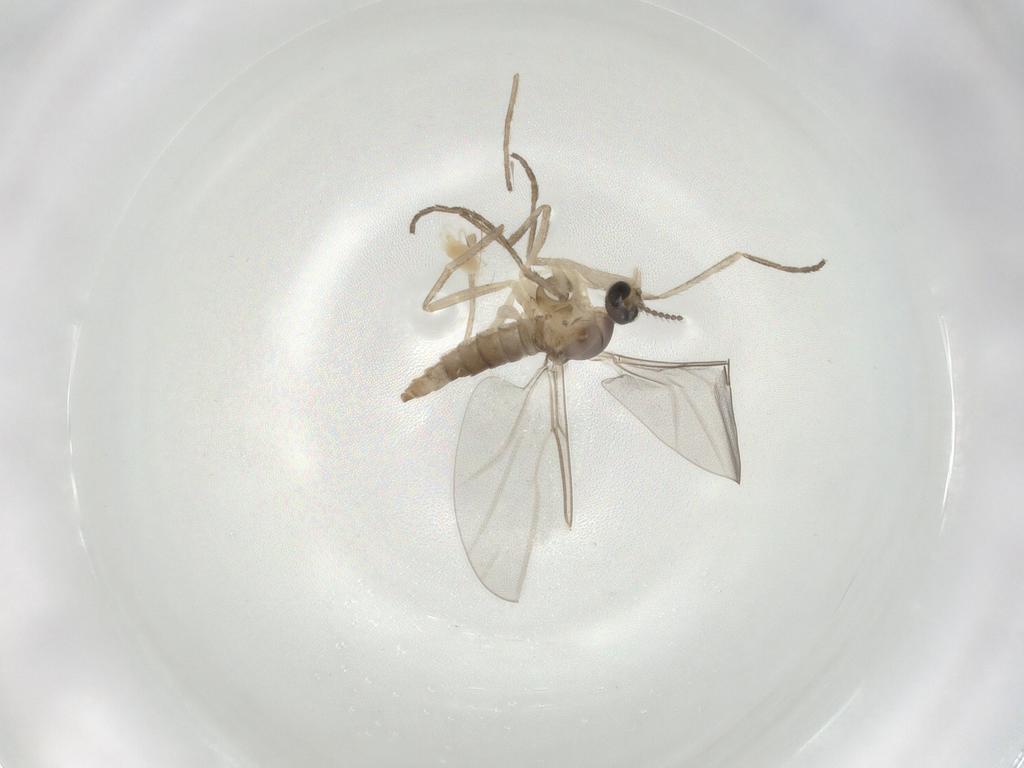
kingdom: Animalia
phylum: Arthropoda
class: Insecta
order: Diptera
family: Cecidomyiidae
